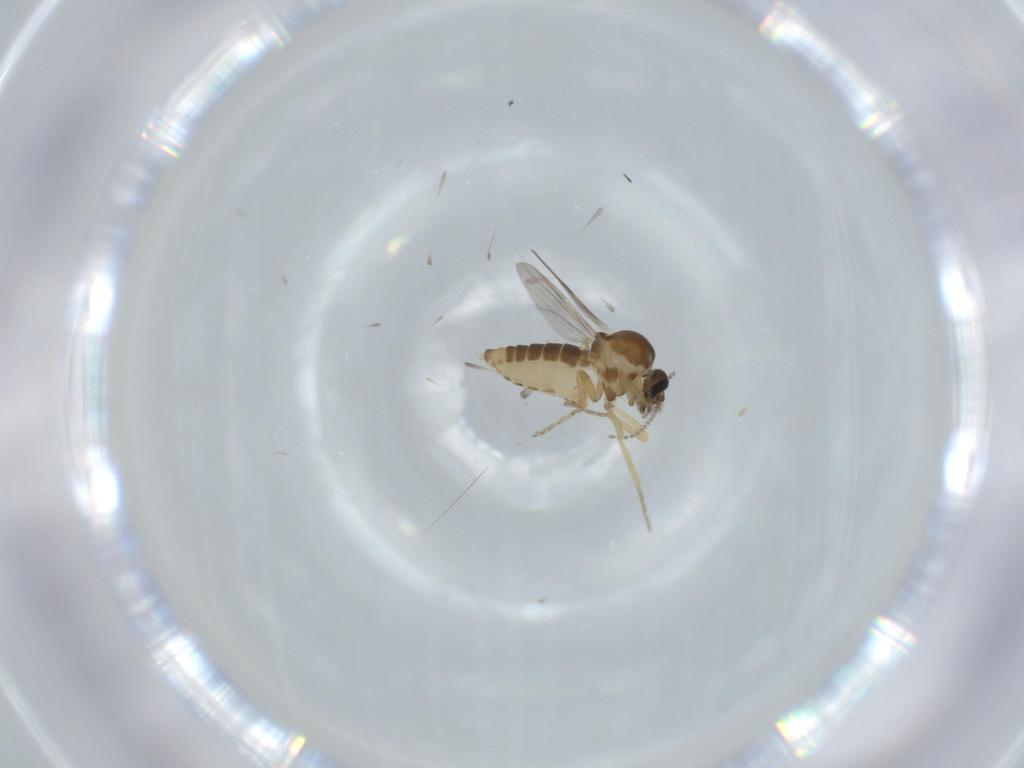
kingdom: Animalia
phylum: Arthropoda
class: Insecta
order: Diptera
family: Ceratopogonidae
